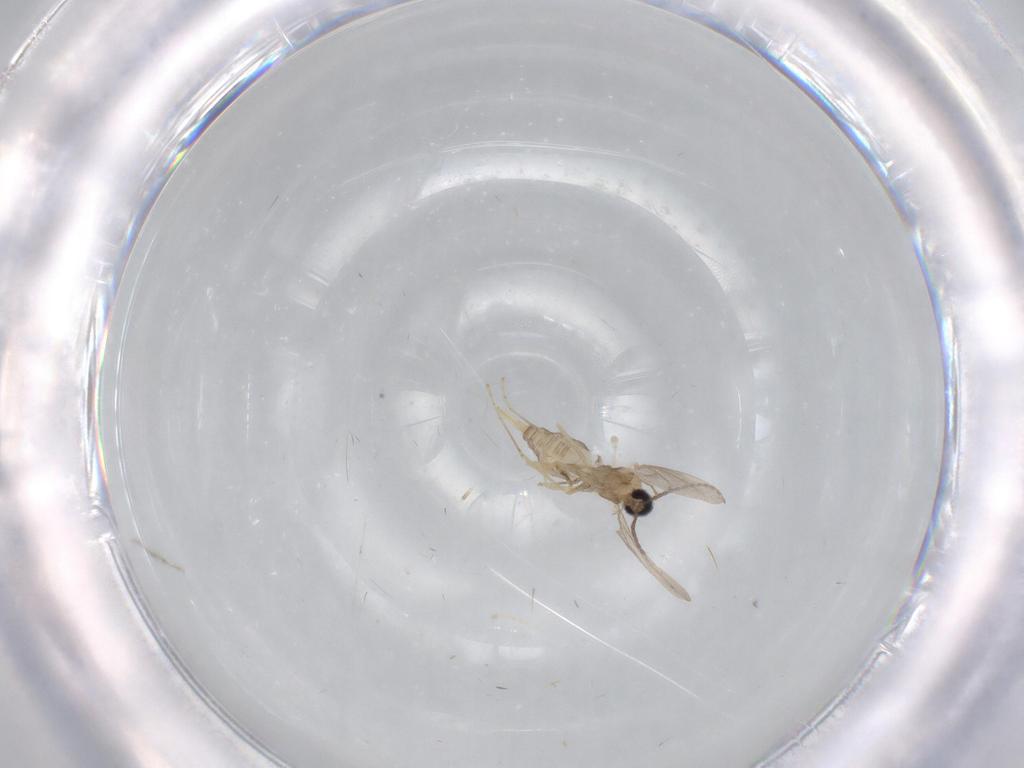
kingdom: Animalia
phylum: Arthropoda
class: Insecta
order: Diptera
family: Cecidomyiidae
